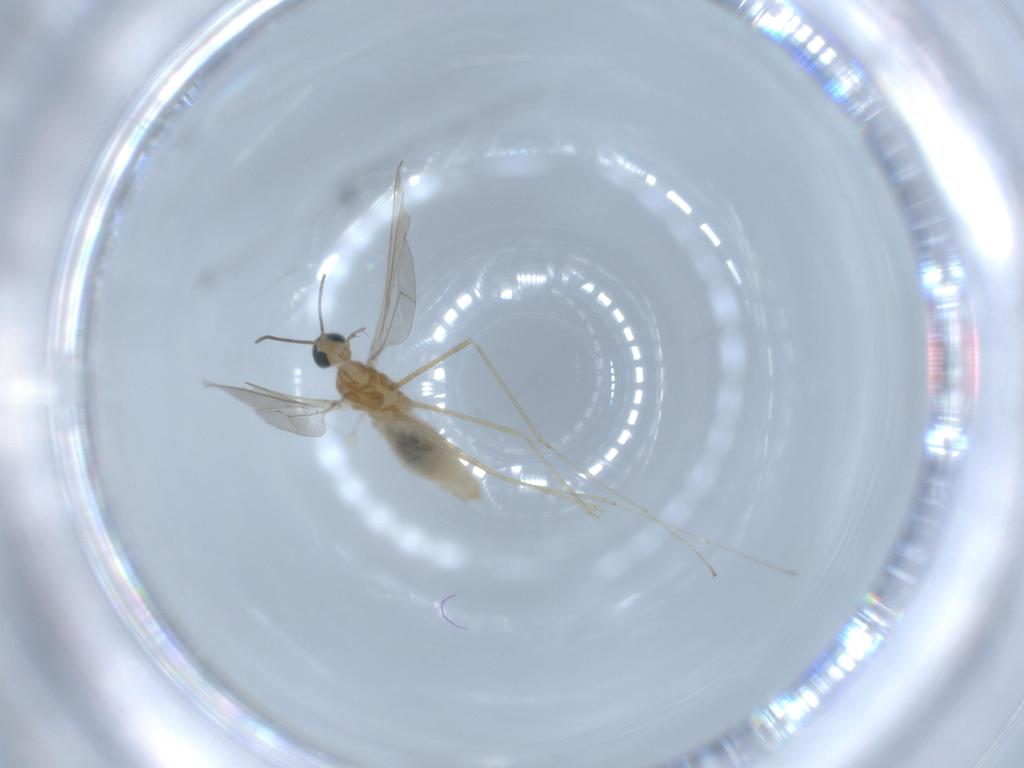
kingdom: Animalia
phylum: Arthropoda
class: Insecta
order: Diptera
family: Cecidomyiidae
